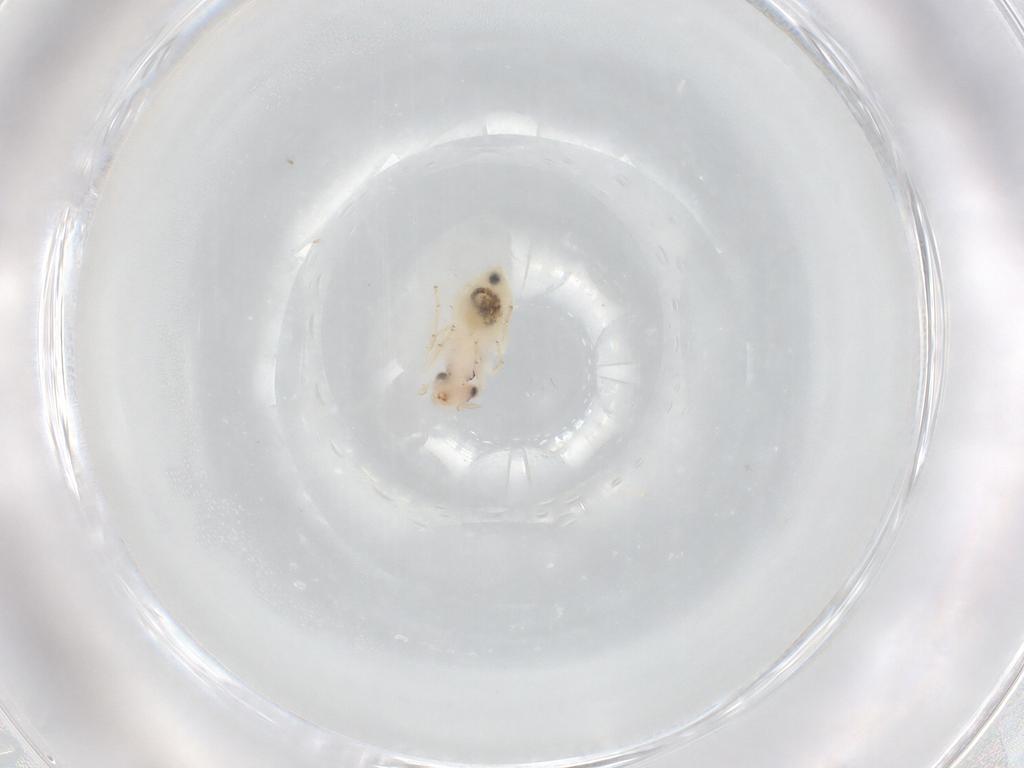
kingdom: Animalia
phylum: Arthropoda
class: Insecta
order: Psocodea
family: Lepidopsocidae
